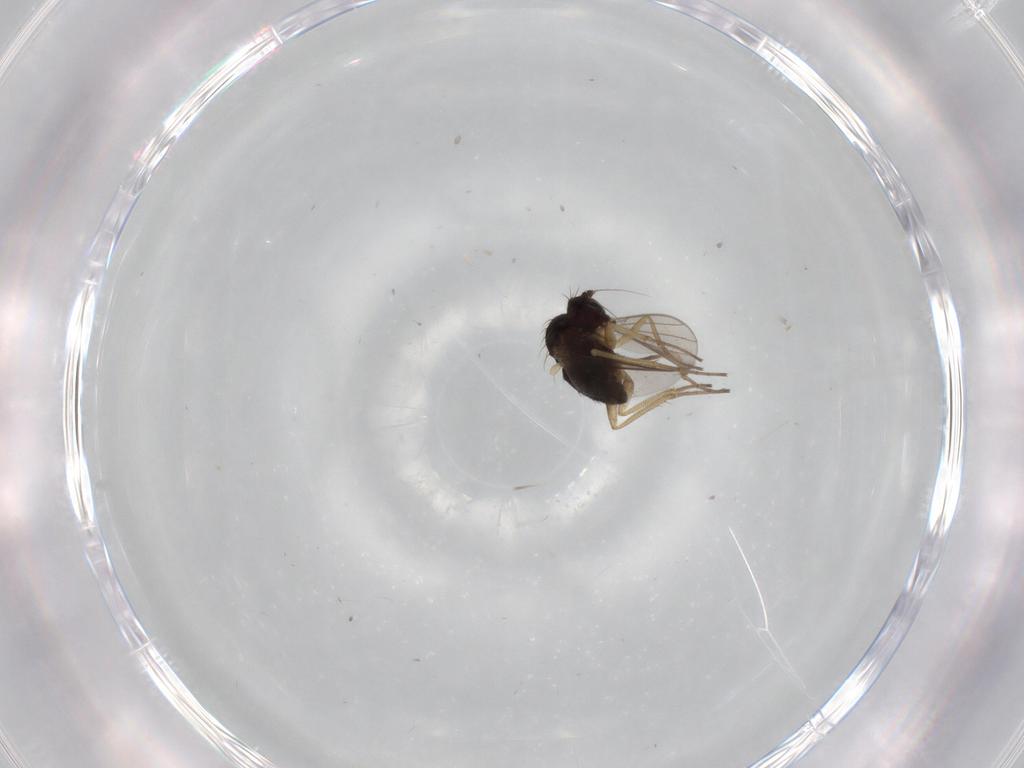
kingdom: Animalia
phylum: Arthropoda
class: Insecta
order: Diptera
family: Dolichopodidae
